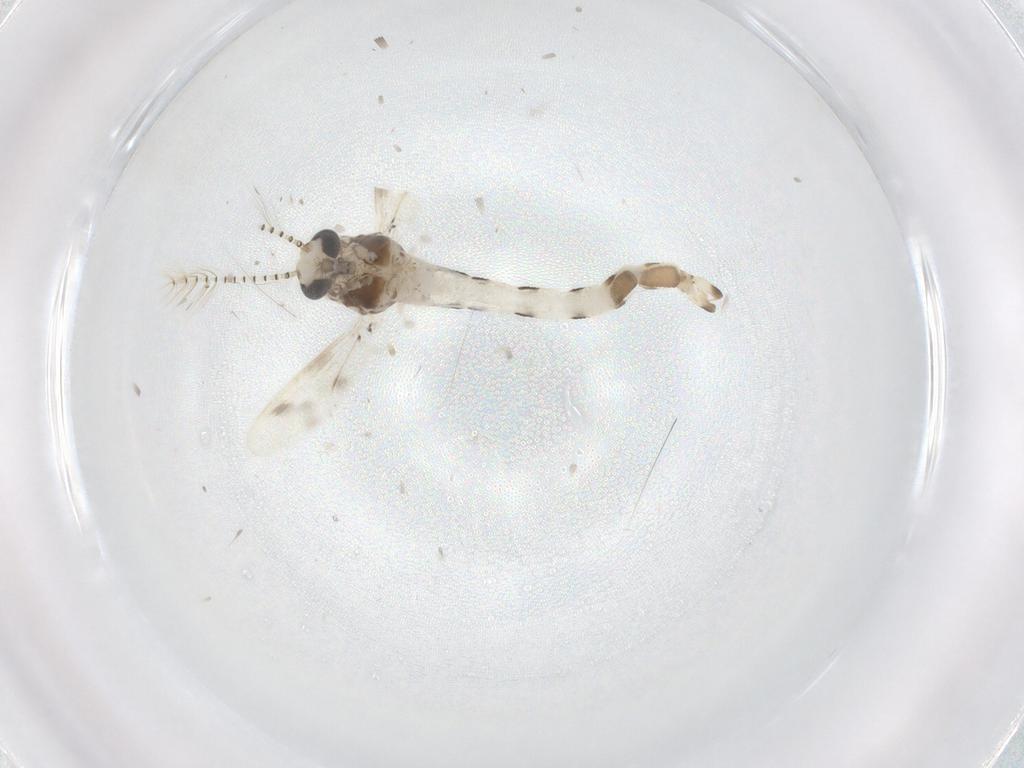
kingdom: Animalia
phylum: Arthropoda
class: Insecta
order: Diptera
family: Corethrellidae
